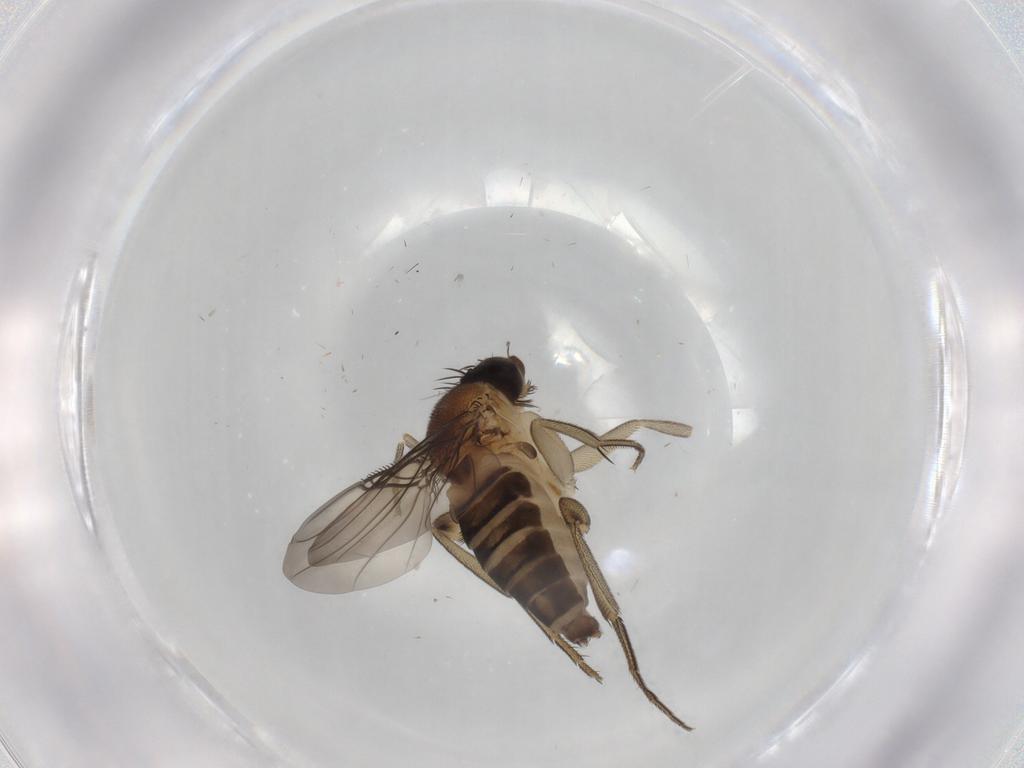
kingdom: Animalia
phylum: Arthropoda
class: Insecta
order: Diptera
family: Phoridae
